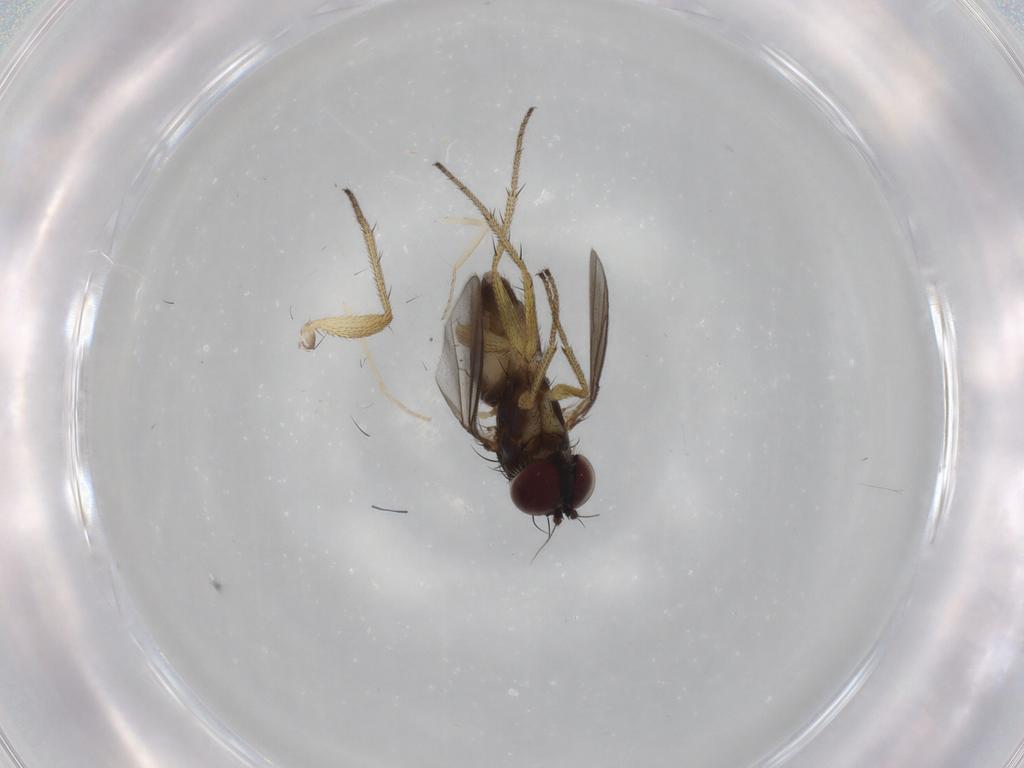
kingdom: Animalia
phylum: Arthropoda
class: Insecta
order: Diptera
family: Dolichopodidae
